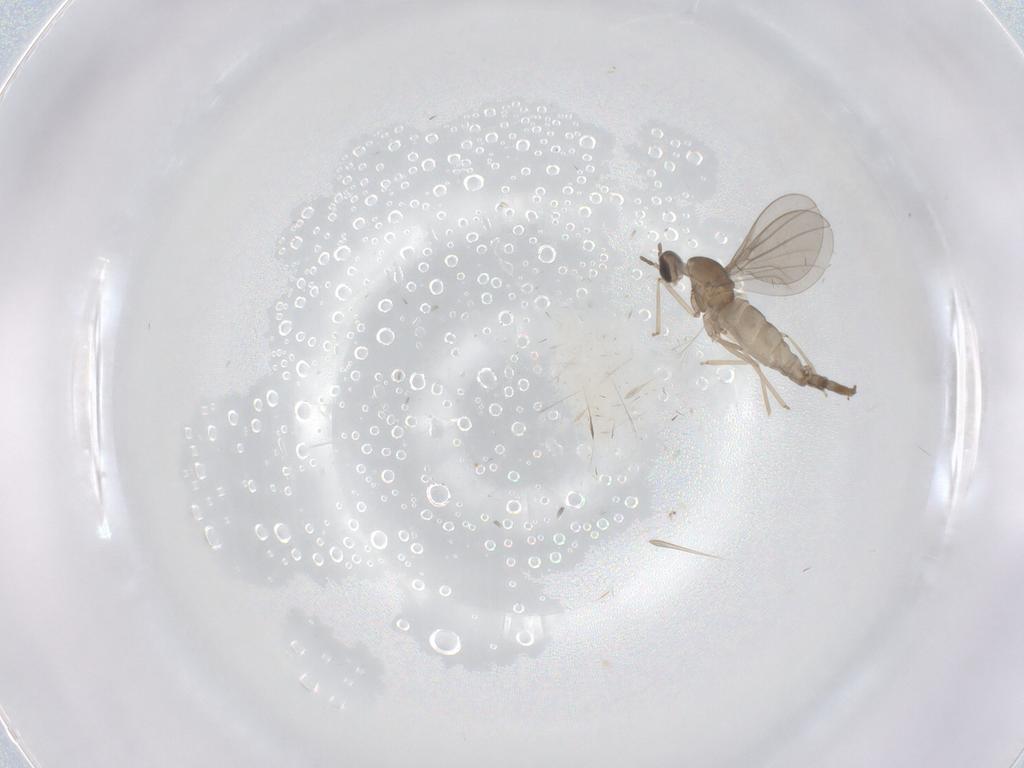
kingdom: Animalia
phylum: Arthropoda
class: Insecta
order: Diptera
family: Cecidomyiidae
